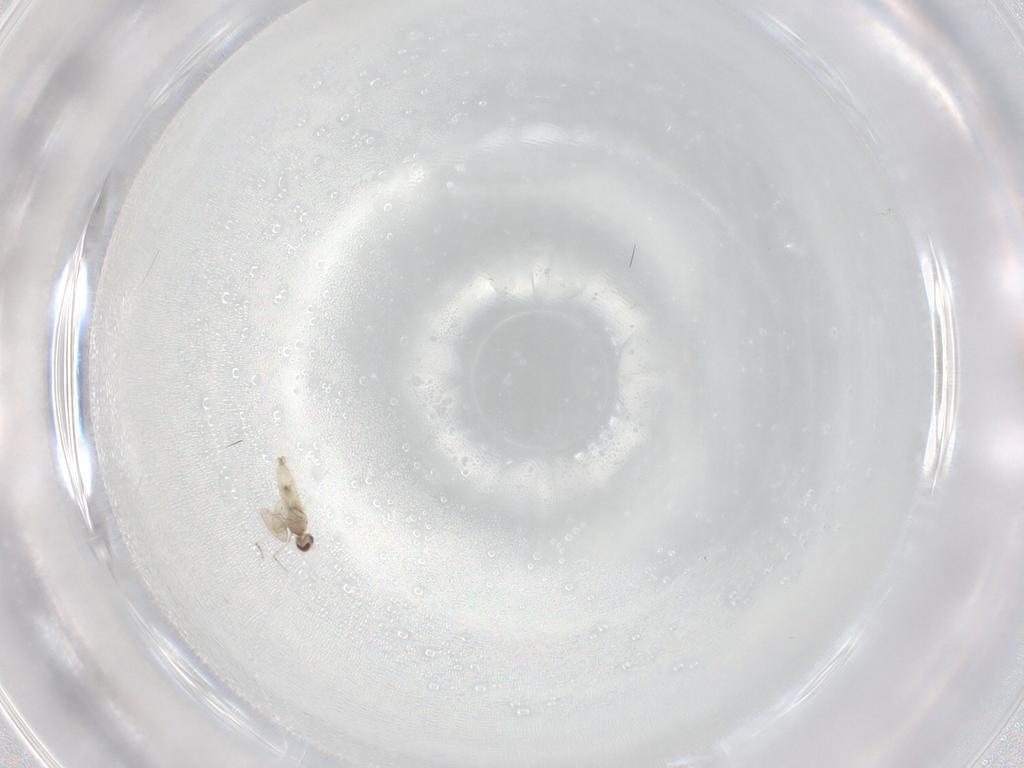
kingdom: Animalia
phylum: Arthropoda
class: Insecta
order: Diptera
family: Cecidomyiidae
